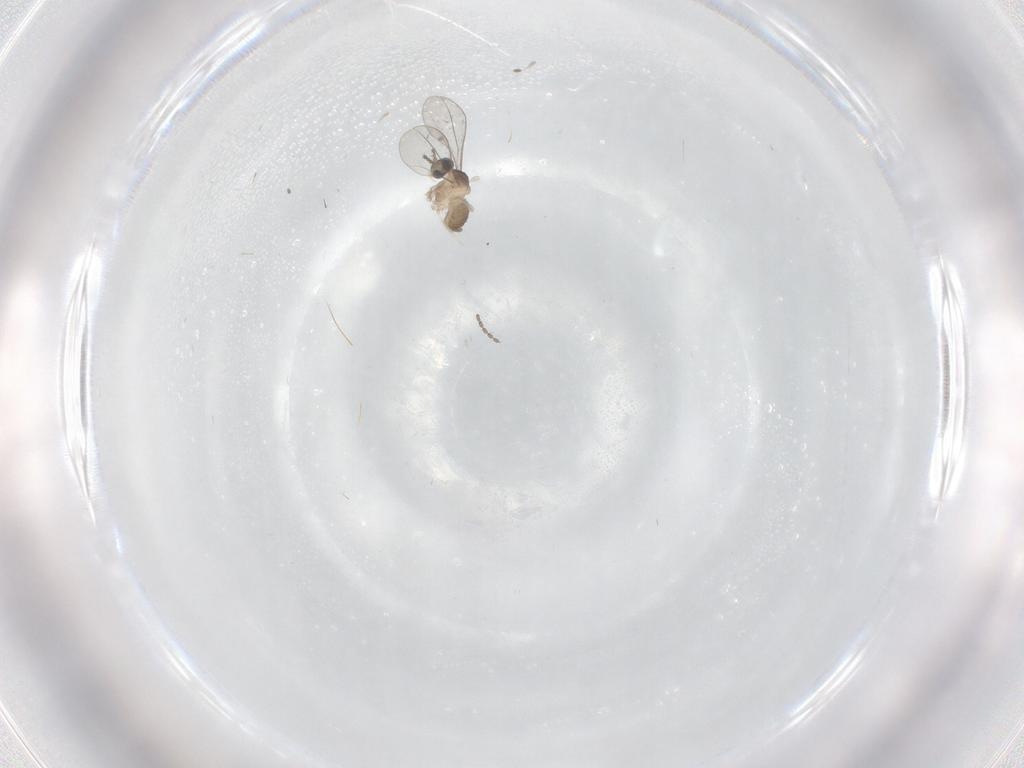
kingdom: Animalia
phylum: Arthropoda
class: Insecta
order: Diptera
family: Cecidomyiidae
